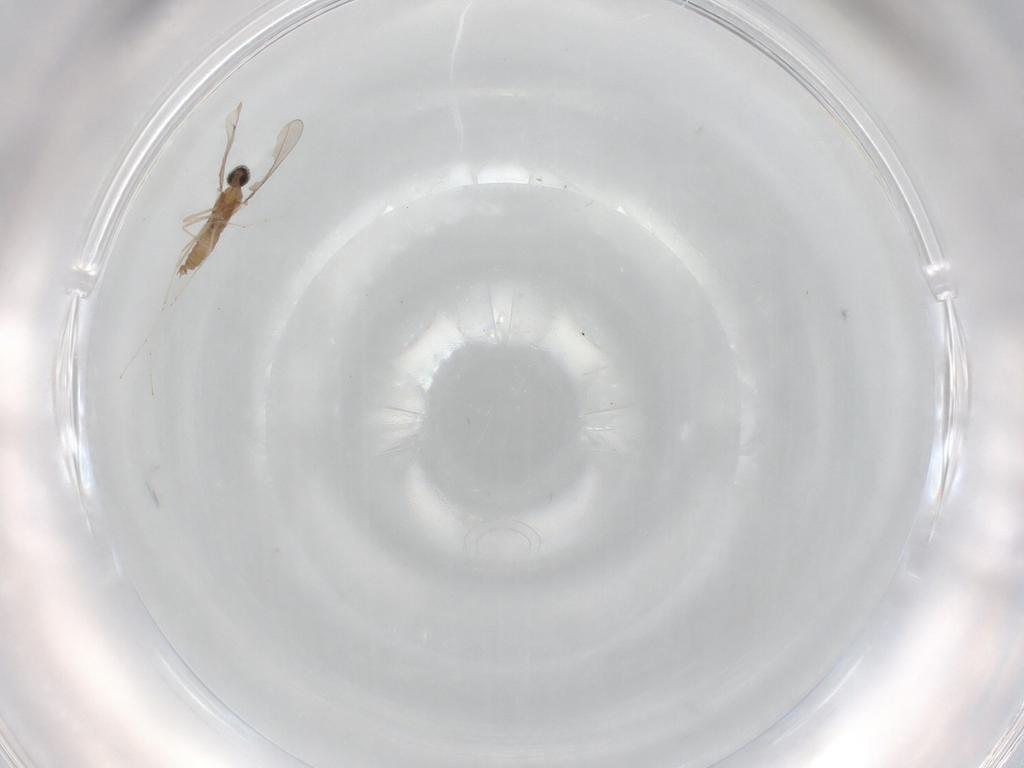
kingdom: Animalia
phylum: Arthropoda
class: Insecta
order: Diptera
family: Cecidomyiidae
